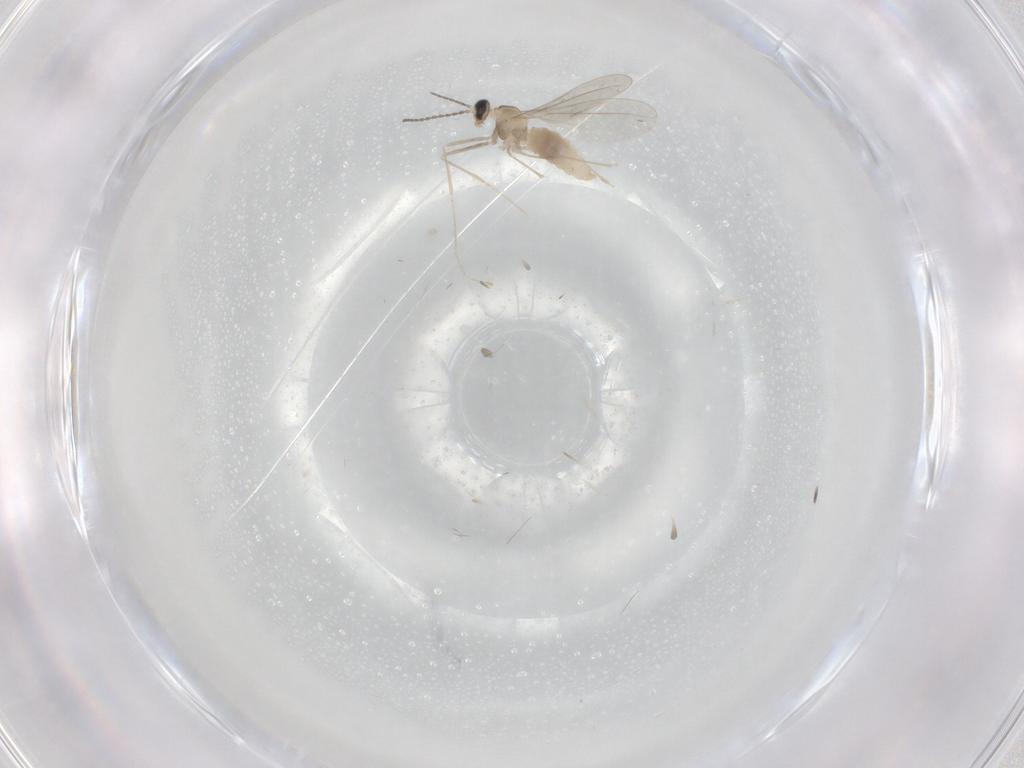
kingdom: Animalia
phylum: Arthropoda
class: Insecta
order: Diptera
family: Cecidomyiidae
